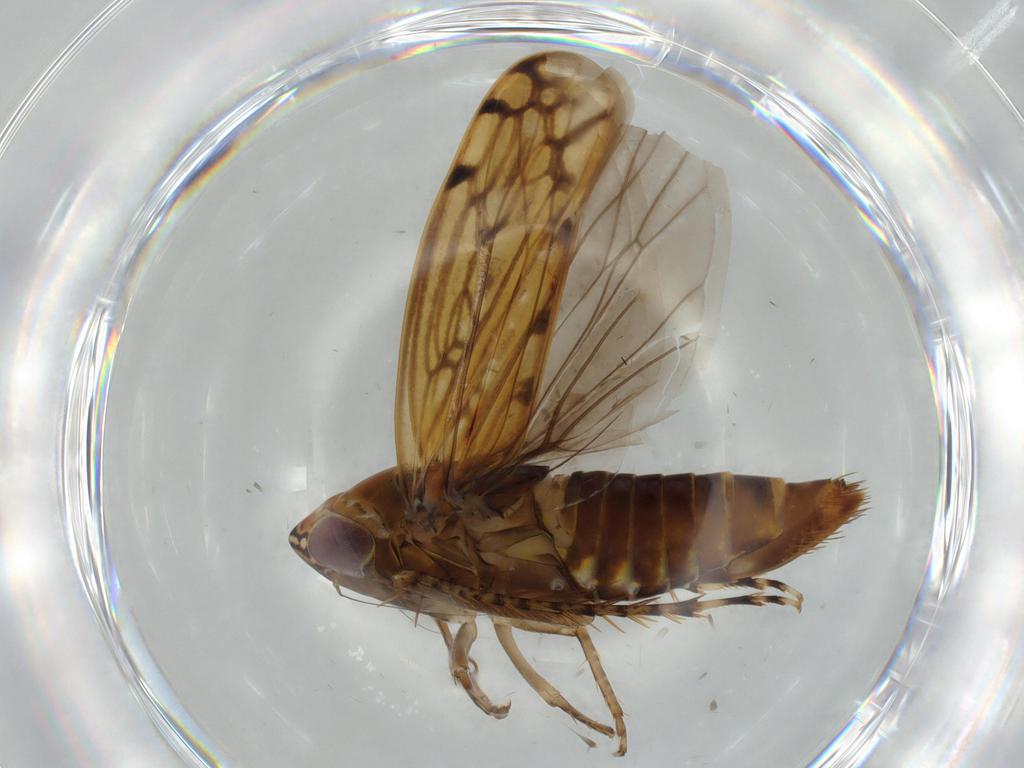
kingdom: Animalia
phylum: Arthropoda
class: Insecta
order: Hemiptera
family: Cicadellidae
